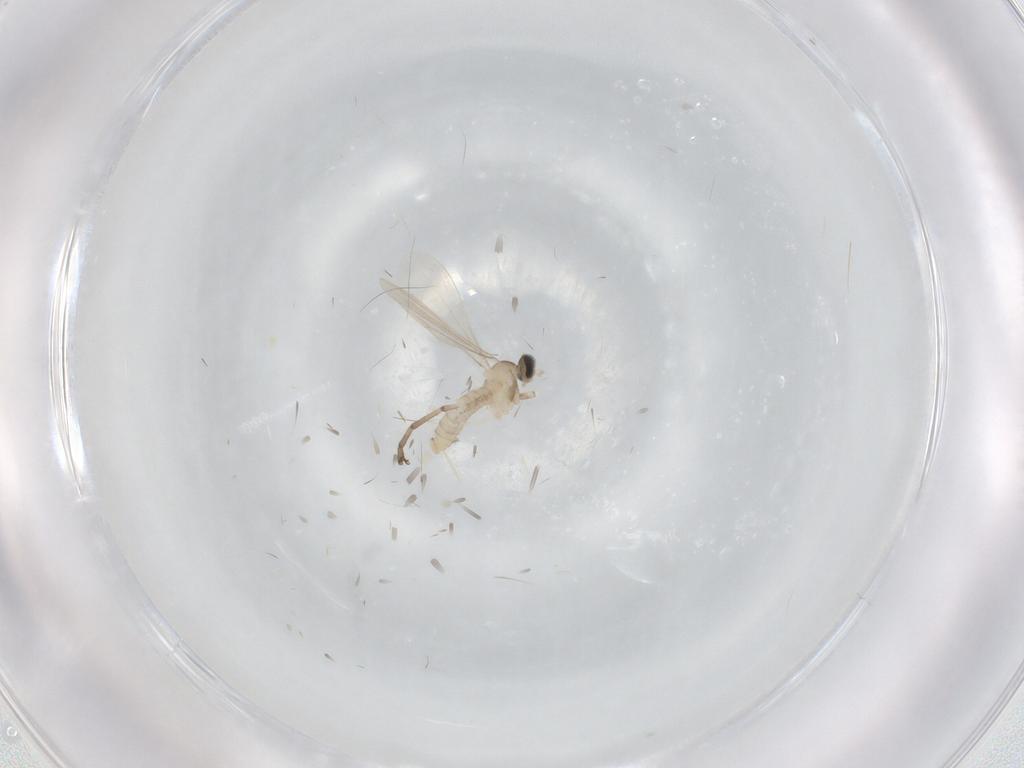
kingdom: Animalia
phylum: Arthropoda
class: Insecta
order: Diptera
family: Cecidomyiidae
